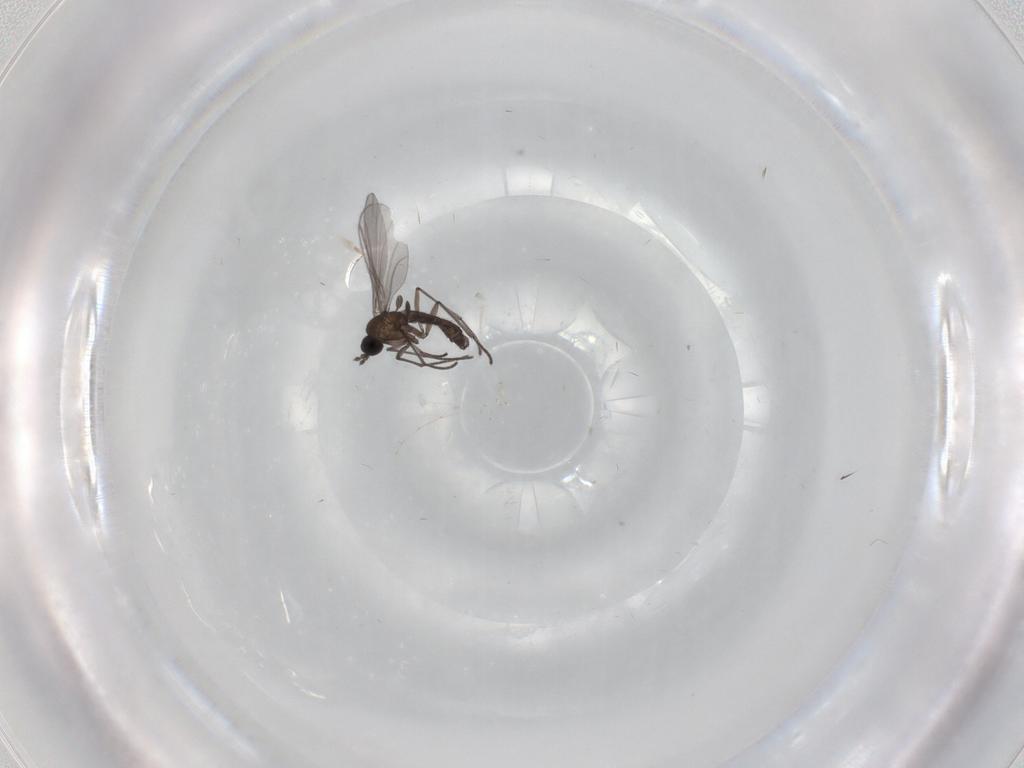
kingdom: Animalia
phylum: Arthropoda
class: Insecta
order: Diptera
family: Cecidomyiidae
